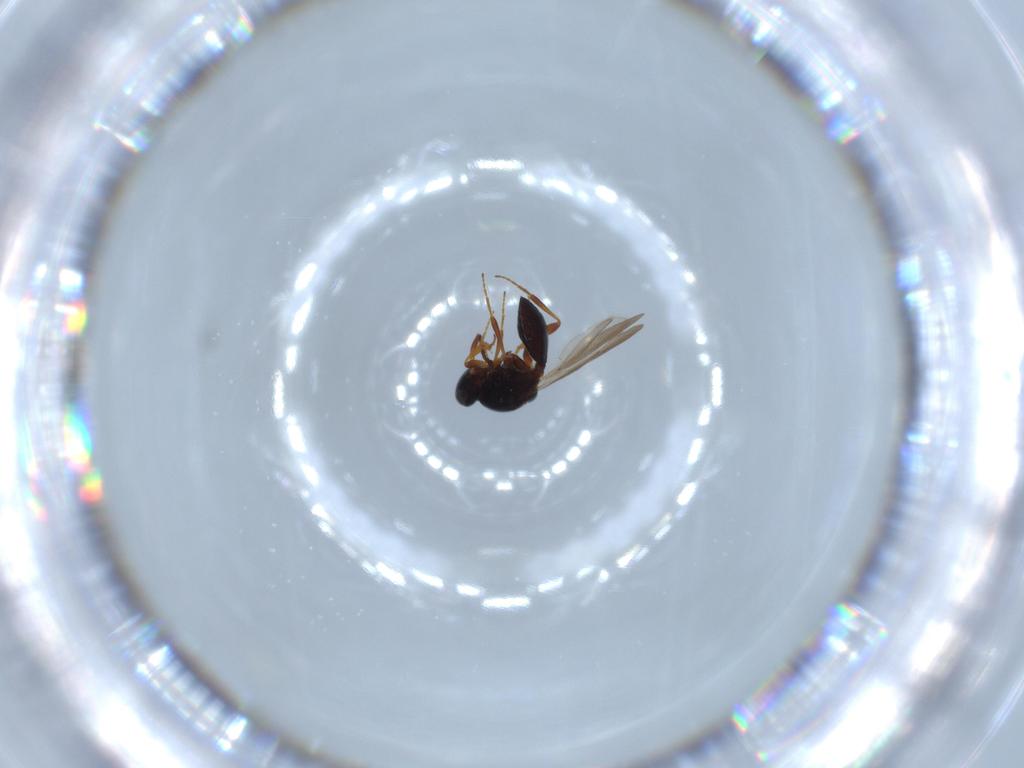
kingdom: Animalia
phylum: Arthropoda
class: Insecta
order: Hymenoptera
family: Platygastridae
